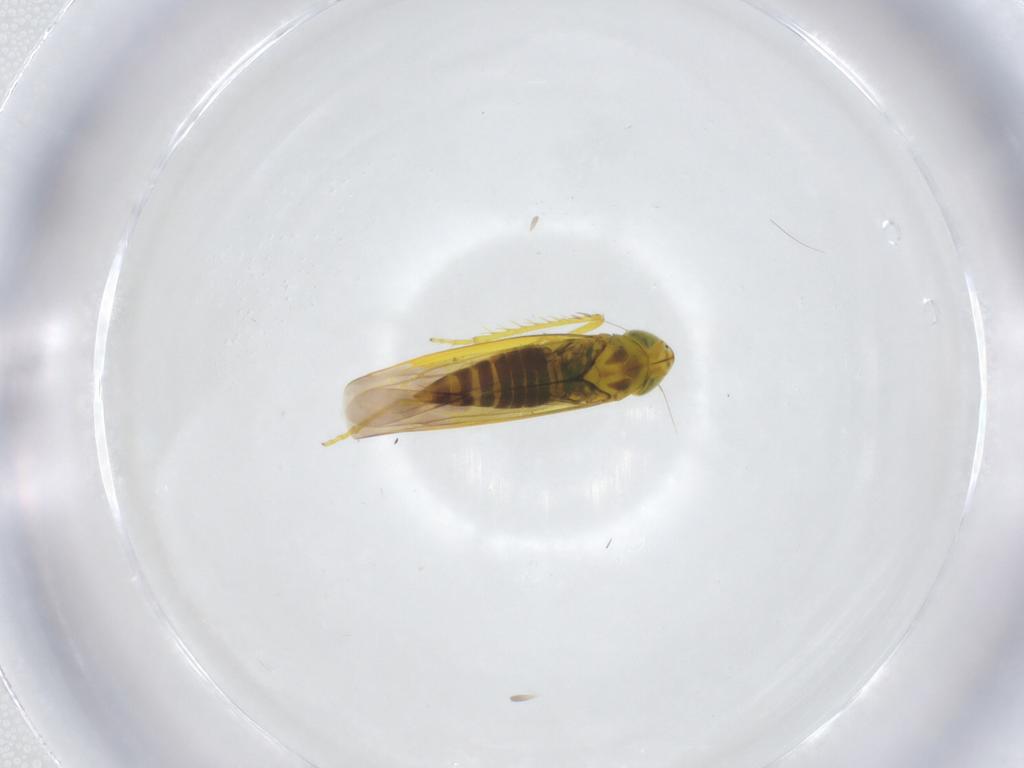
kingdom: Animalia
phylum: Arthropoda
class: Insecta
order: Hemiptera
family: Cicadellidae
